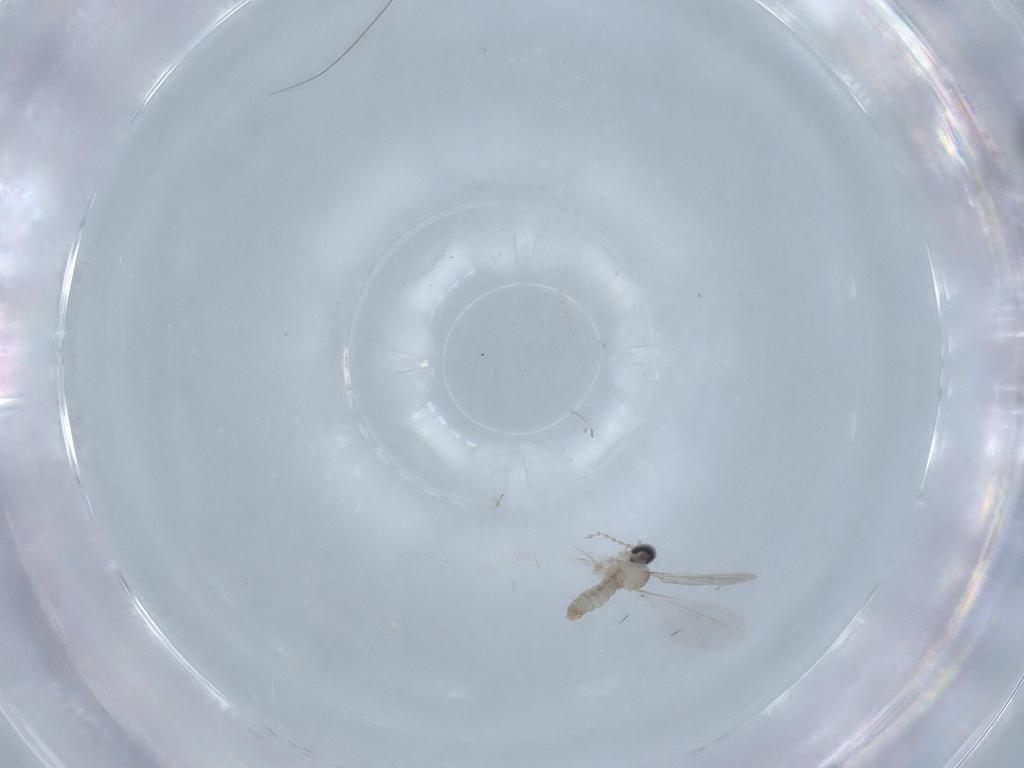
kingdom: Animalia
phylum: Arthropoda
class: Insecta
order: Diptera
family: Phoridae
